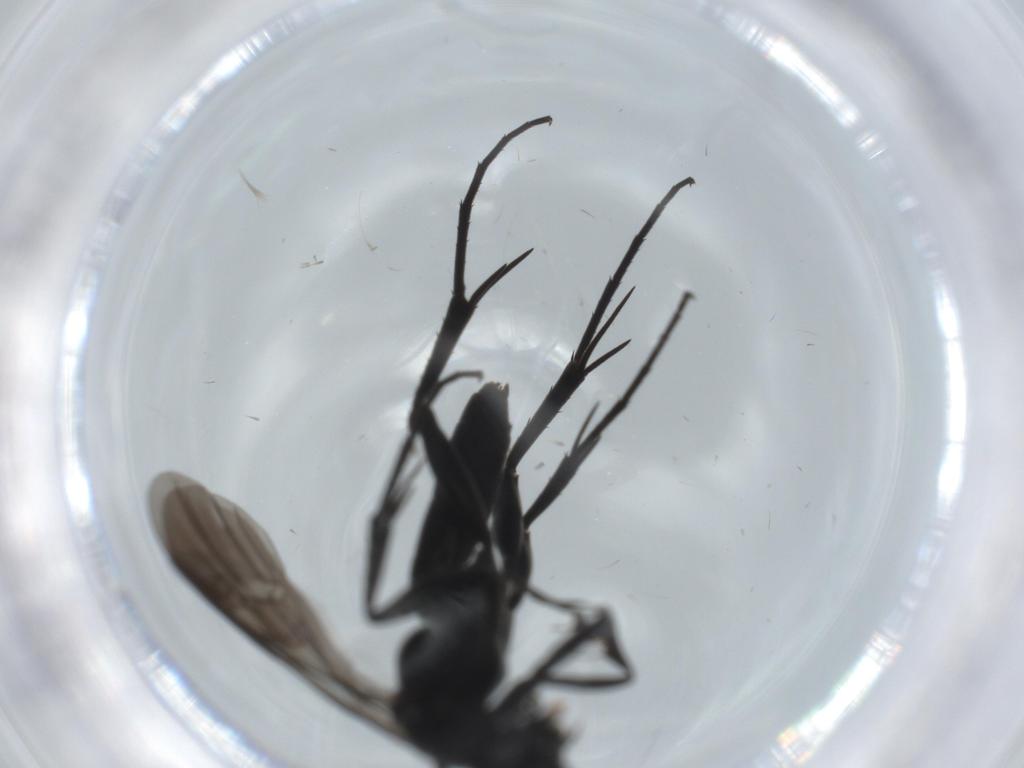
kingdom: Animalia
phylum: Arthropoda
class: Insecta
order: Hymenoptera
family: Pompilidae
